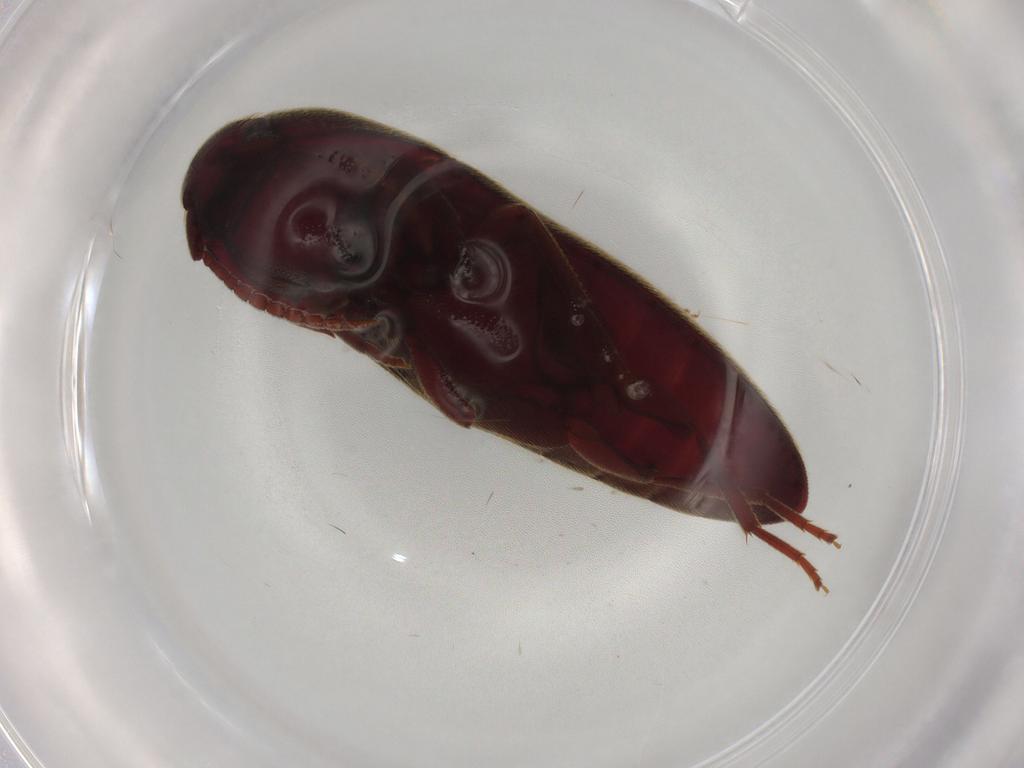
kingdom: Animalia
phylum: Arthropoda
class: Insecta
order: Coleoptera
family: Eucnemidae
